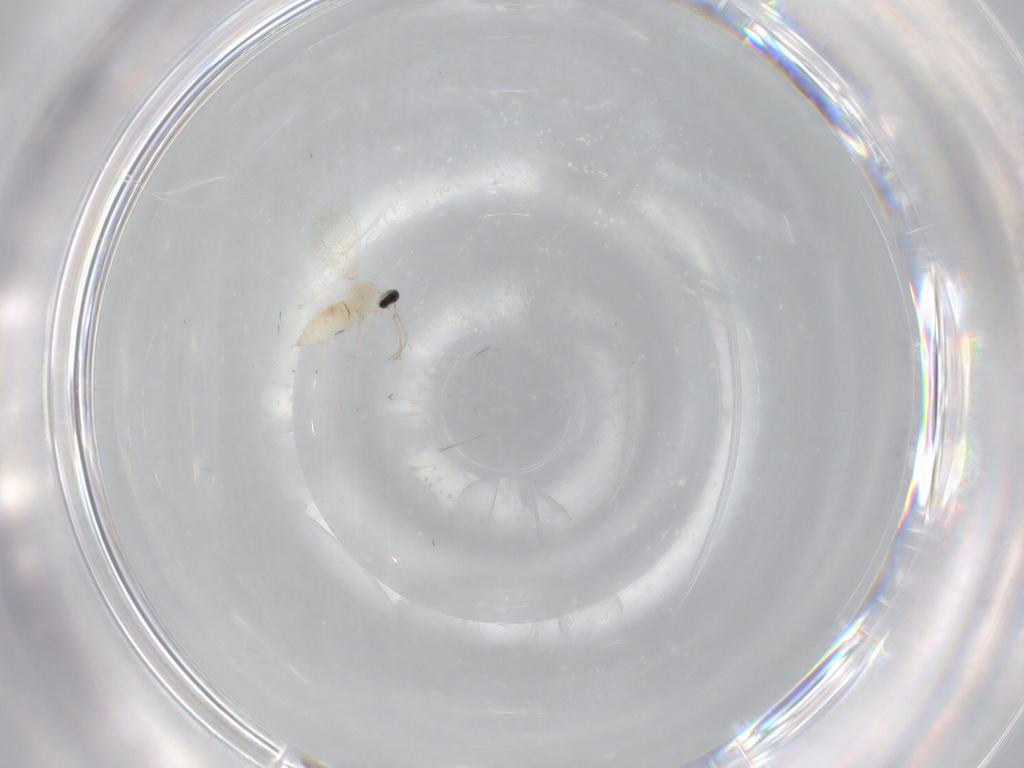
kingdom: Animalia
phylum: Arthropoda
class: Insecta
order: Diptera
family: Cecidomyiidae
